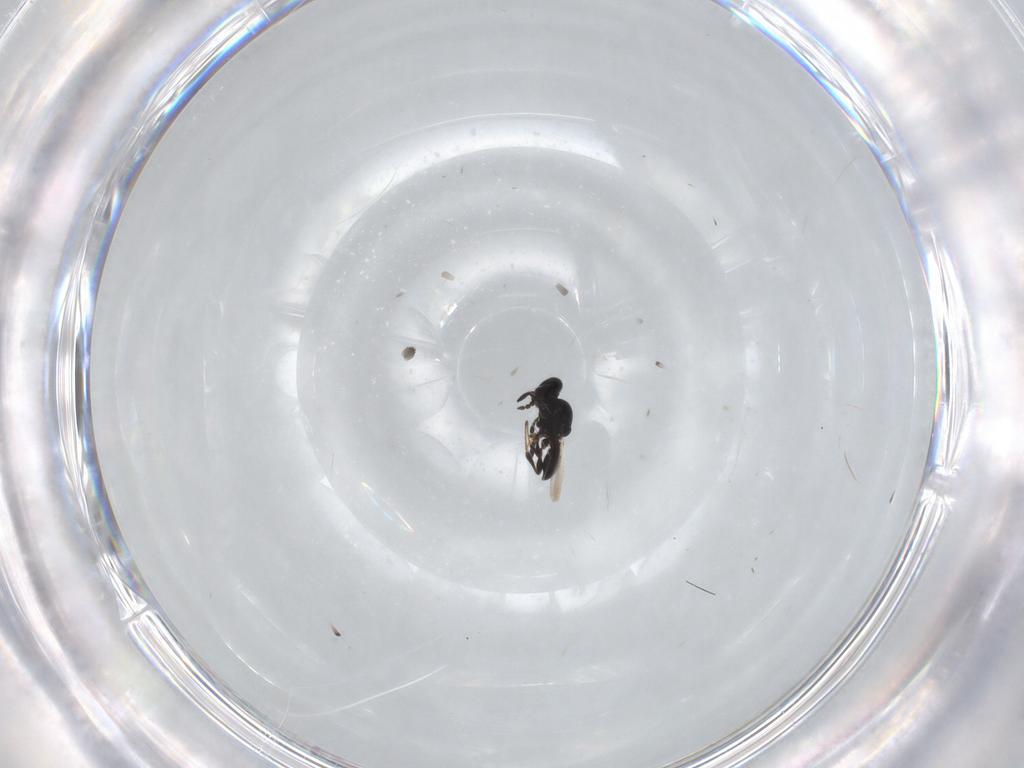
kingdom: Animalia
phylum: Arthropoda
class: Insecta
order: Hymenoptera
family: Platygastridae
